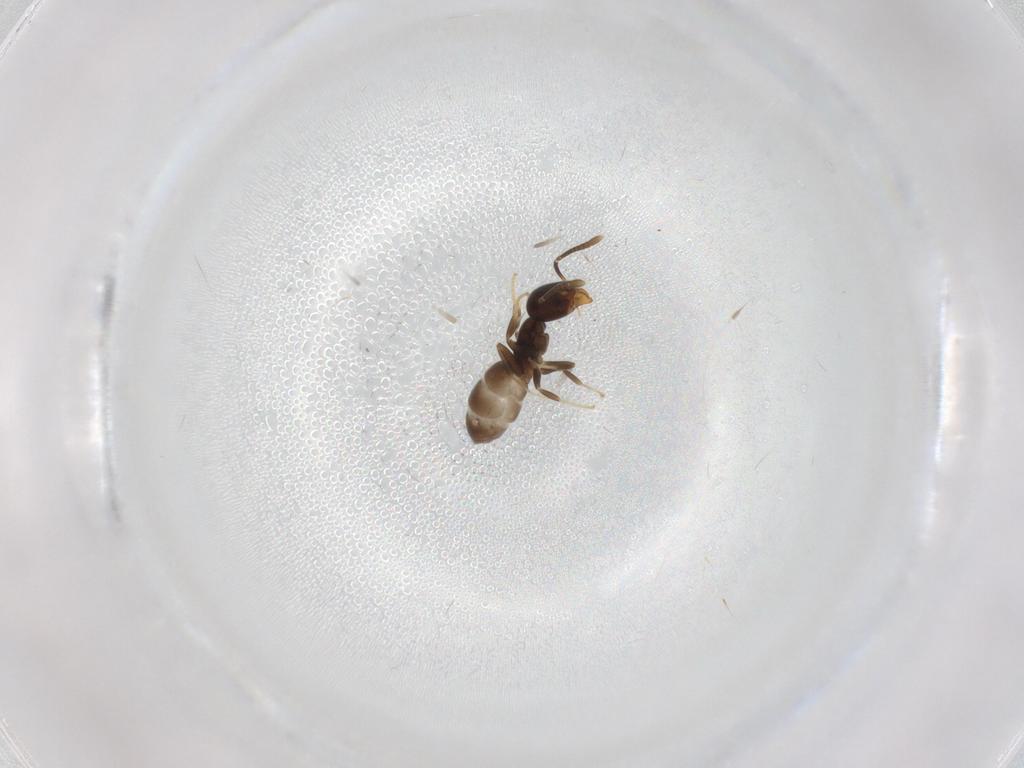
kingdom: Animalia
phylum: Arthropoda
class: Insecta
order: Hymenoptera
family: Formicidae
